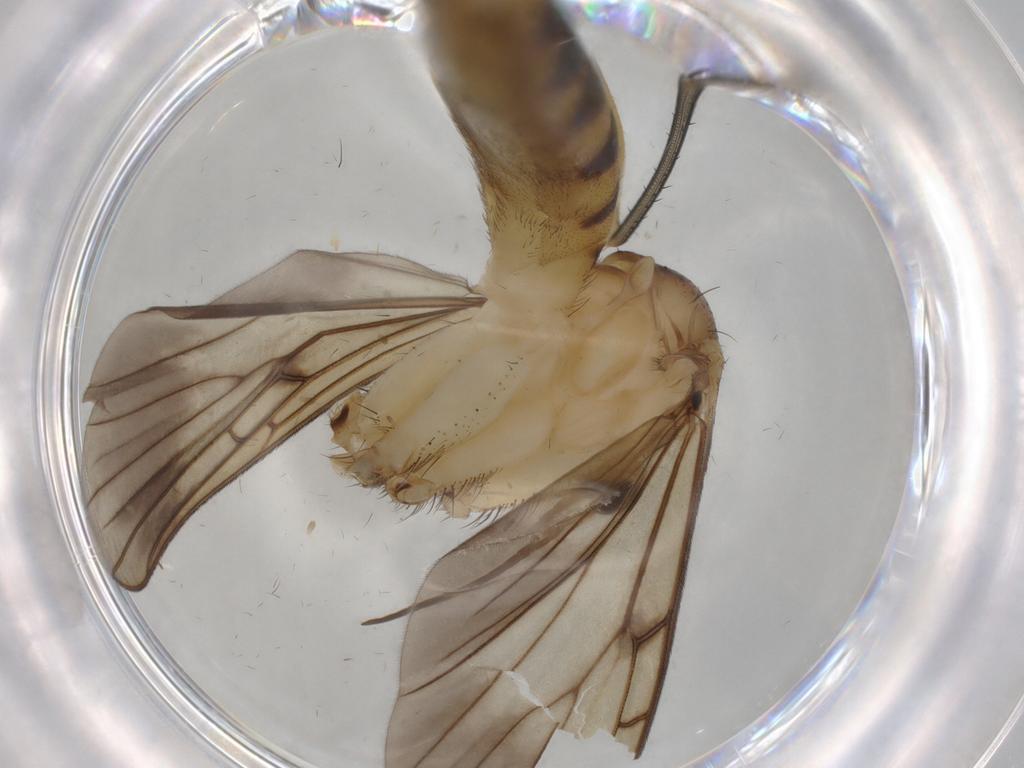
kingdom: Animalia
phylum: Arthropoda
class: Insecta
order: Diptera
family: Mycetophilidae
